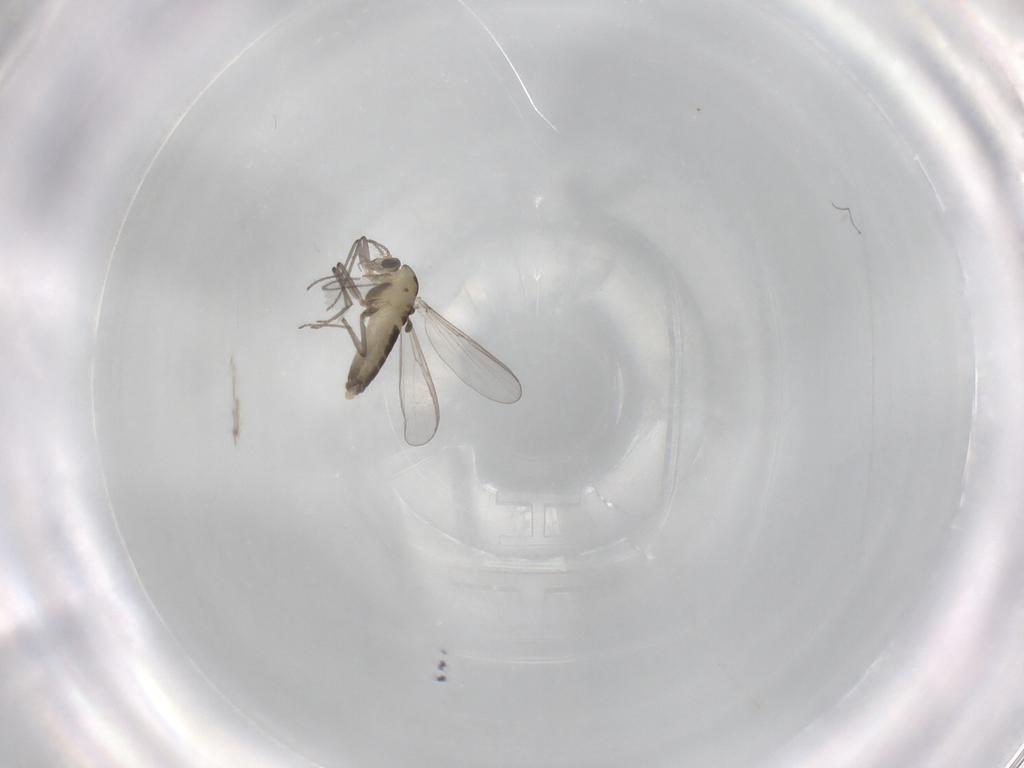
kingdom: Animalia
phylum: Arthropoda
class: Insecta
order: Diptera
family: Chironomidae
